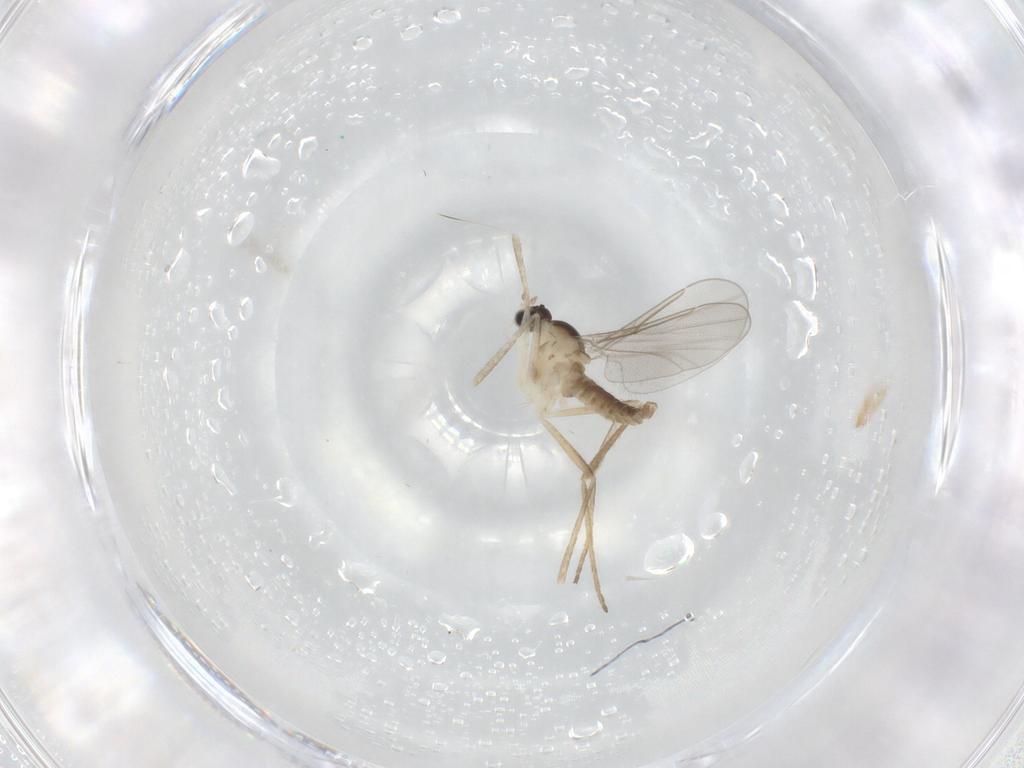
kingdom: Animalia
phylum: Arthropoda
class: Insecta
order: Diptera
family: Cecidomyiidae
